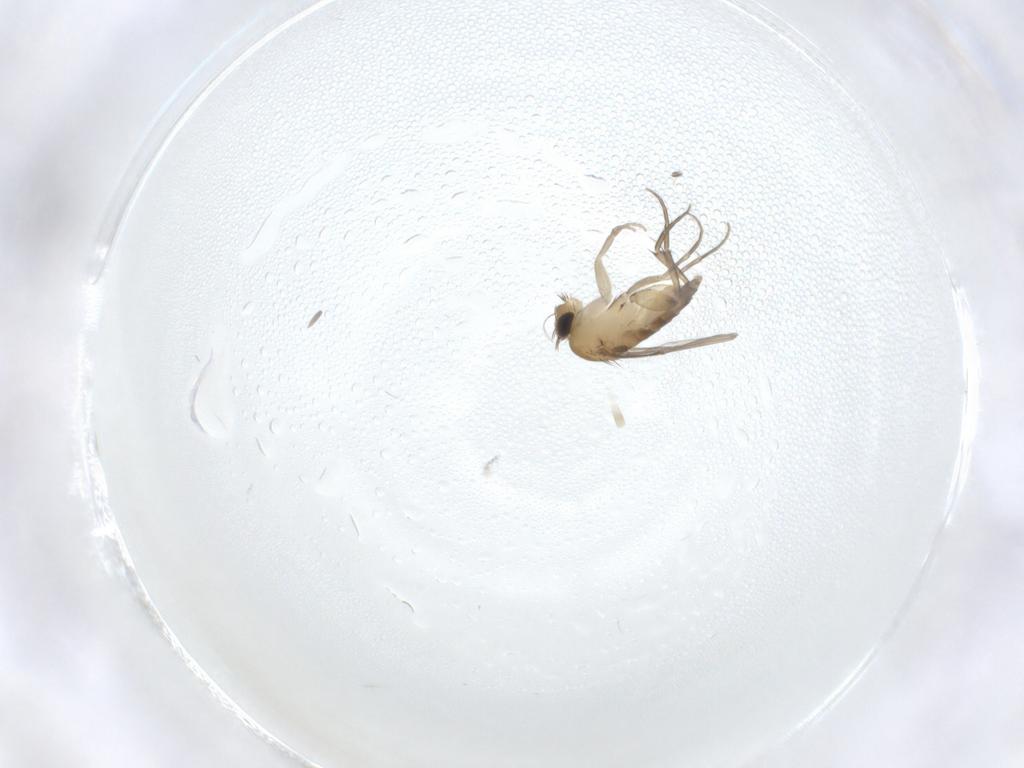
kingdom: Animalia
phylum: Arthropoda
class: Insecta
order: Diptera
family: Phoridae
